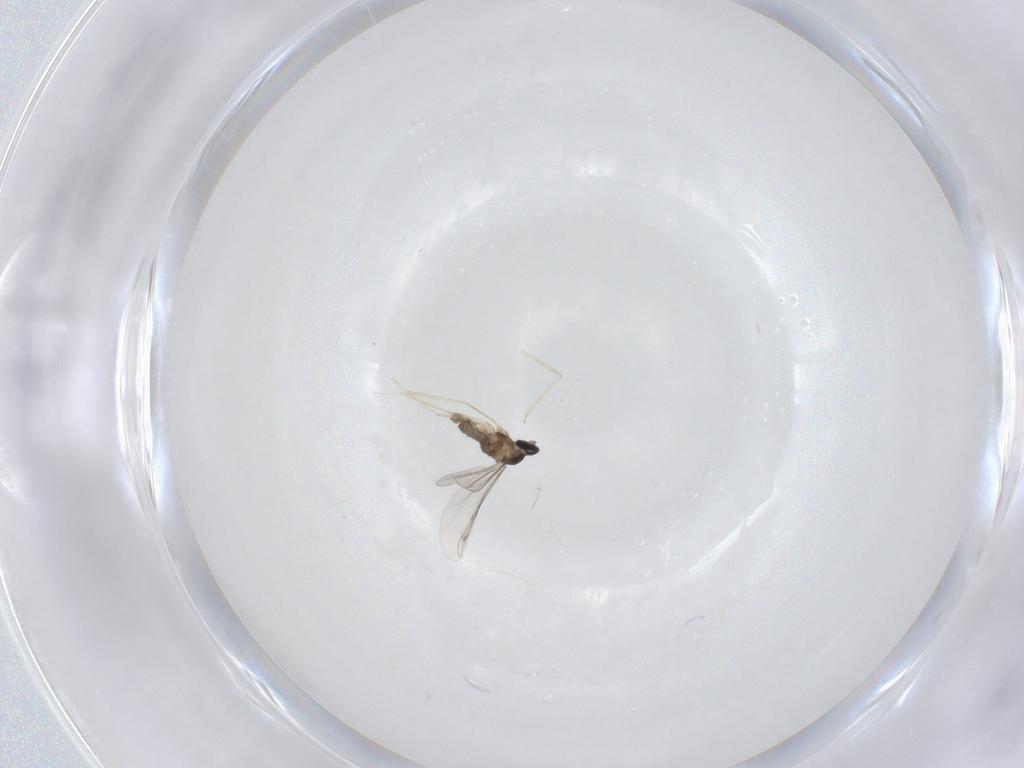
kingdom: Animalia
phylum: Arthropoda
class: Insecta
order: Diptera
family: Cecidomyiidae
